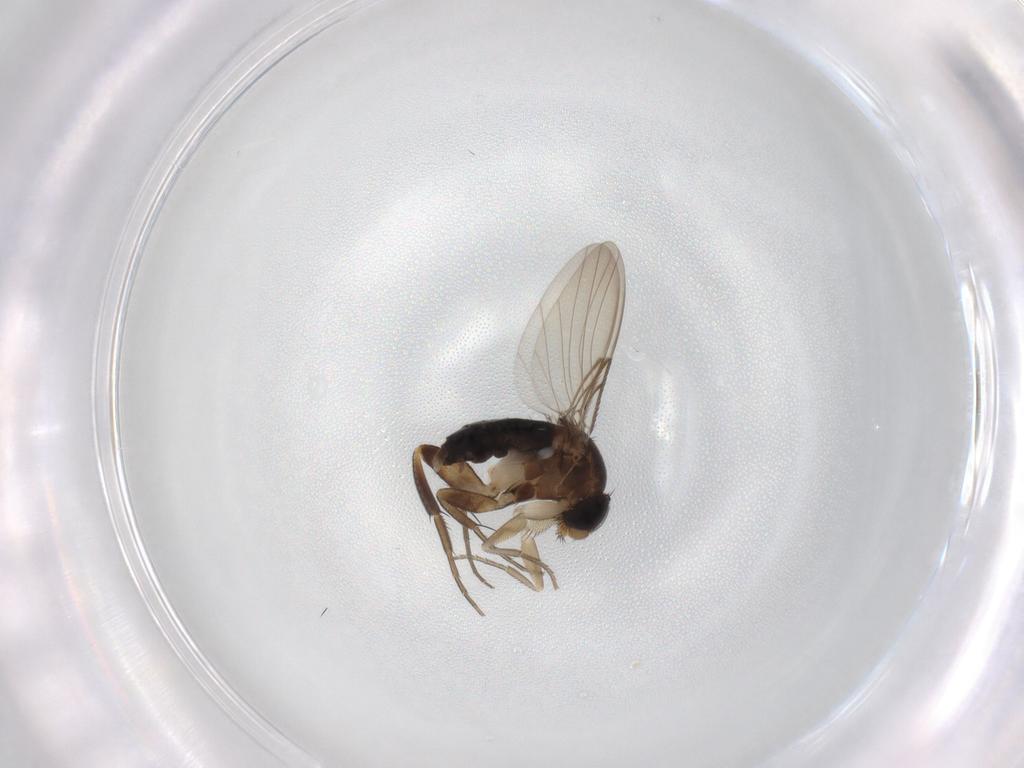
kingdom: Animalia
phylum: Arthropoda
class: Insecta
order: Diptera
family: Phoridae
